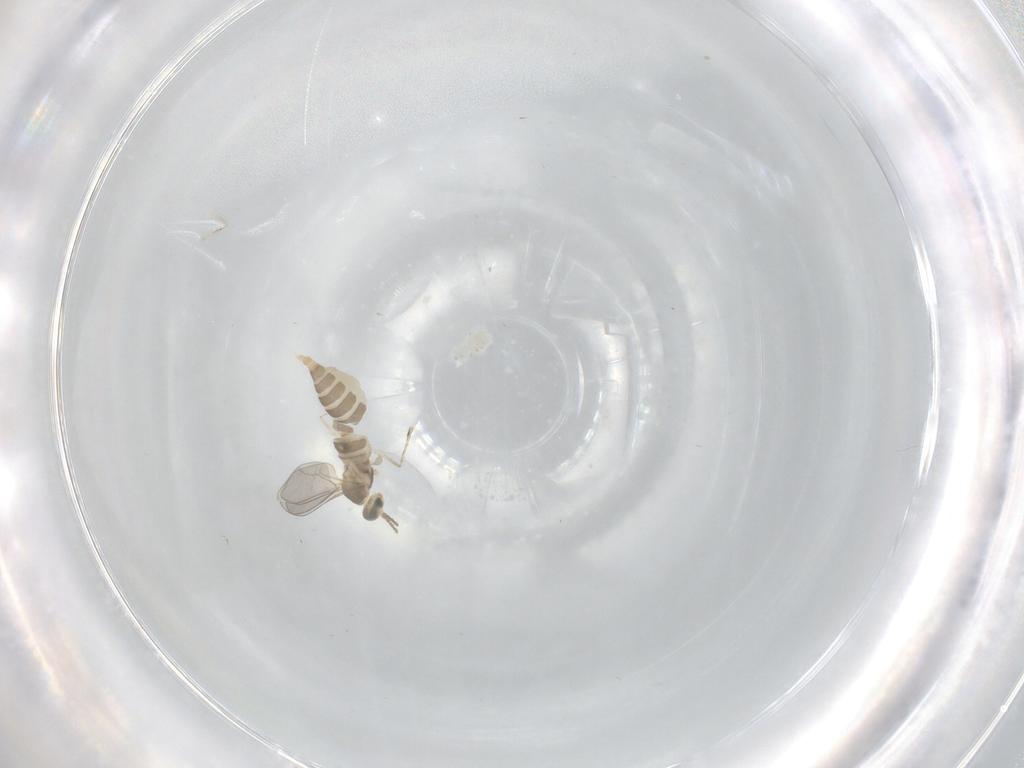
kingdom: Animalia
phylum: Arthropoda
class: Insecta
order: Diptera
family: Cecidomyiidae
